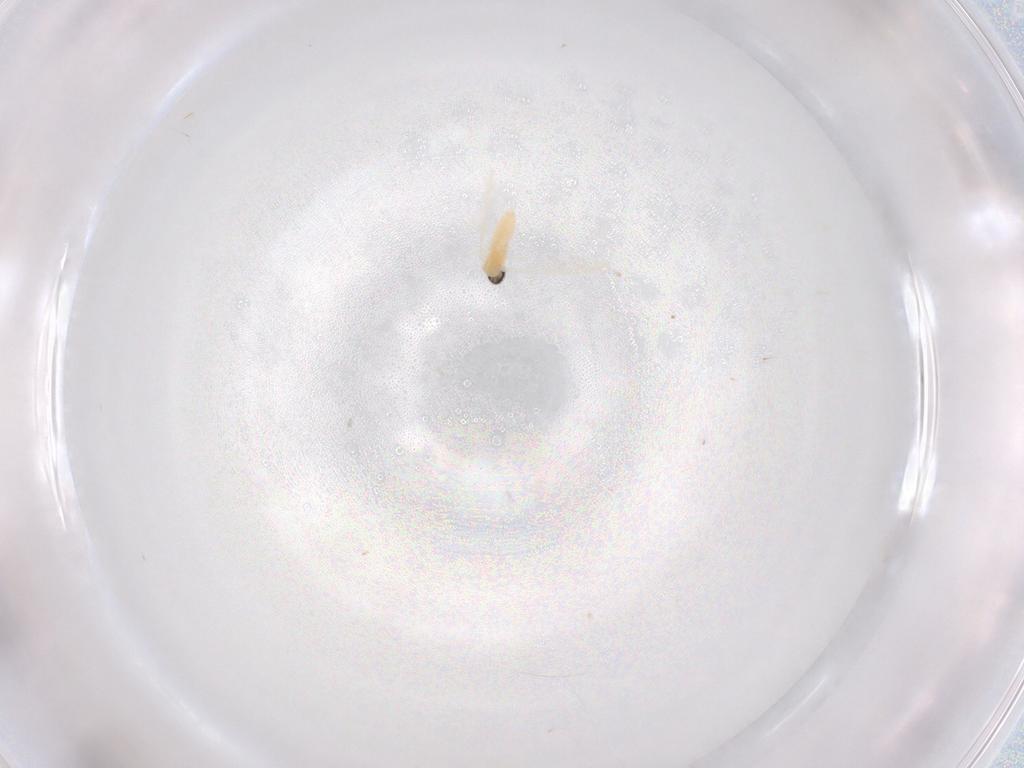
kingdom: Animalia
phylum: Arthropoda
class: Insecta
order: Diptera
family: Cecidomyiidae
